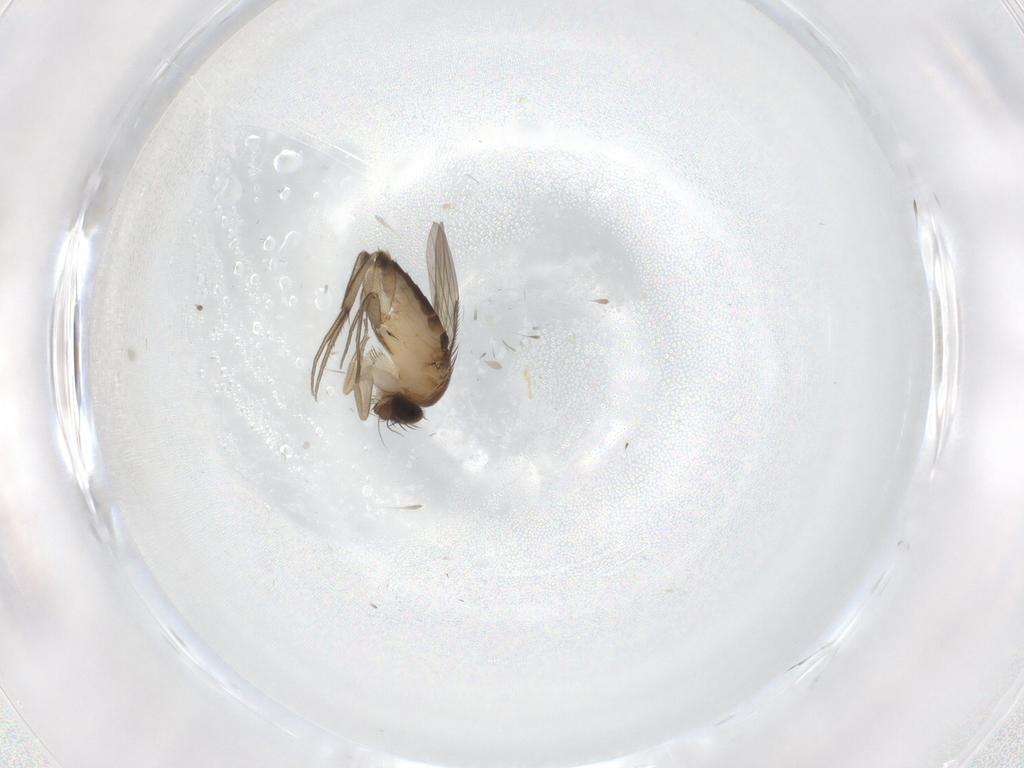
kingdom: Animalia
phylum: Arthropoda
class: Insecta
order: Diptera
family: Phoridae
